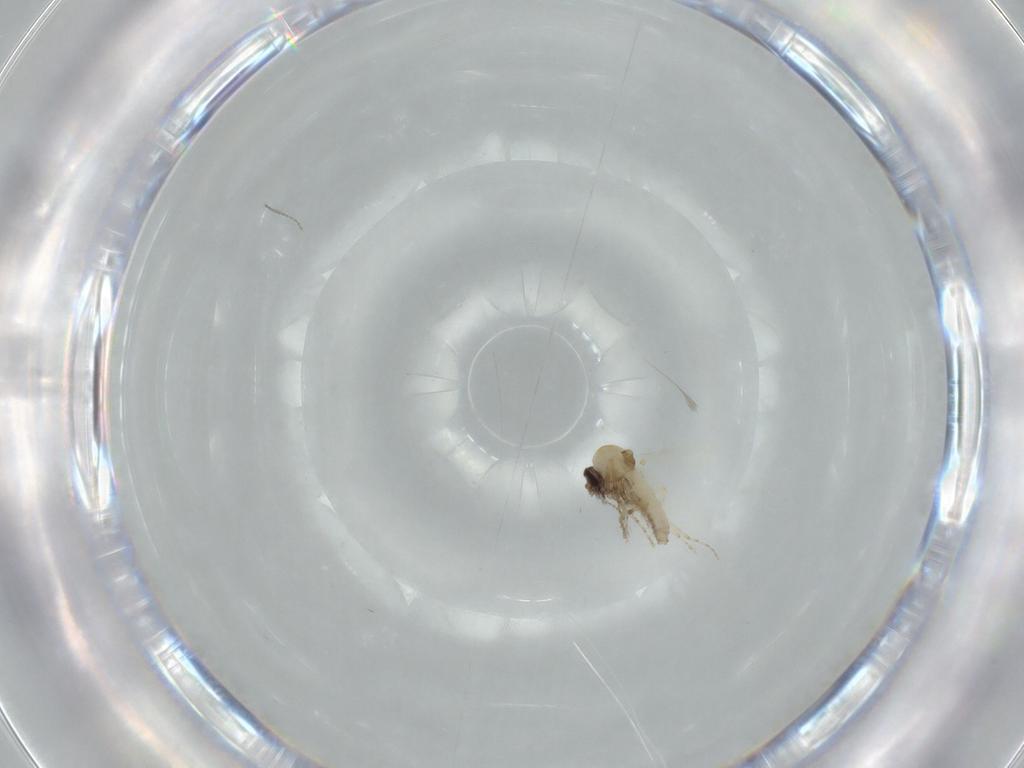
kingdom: Animalia
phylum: Arthropoda
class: Insecta
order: Diptera
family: Ceratopogonidae
